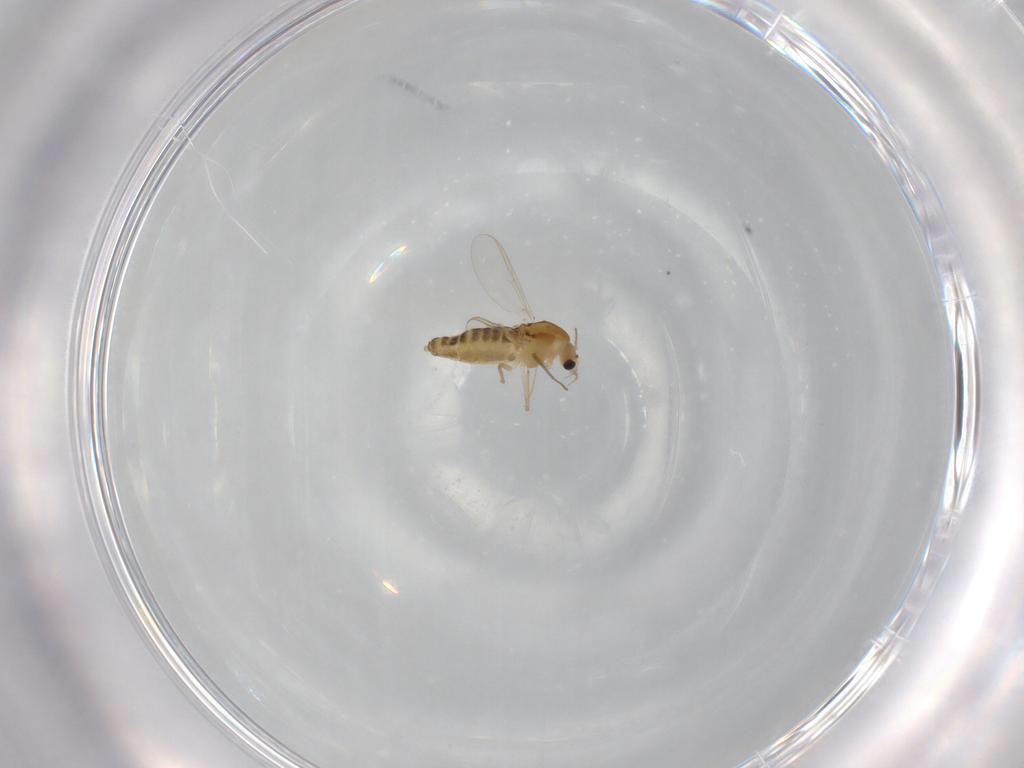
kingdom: Animalia
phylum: Arthropoda
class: Insecta
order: Diptera
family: Chironomidae
